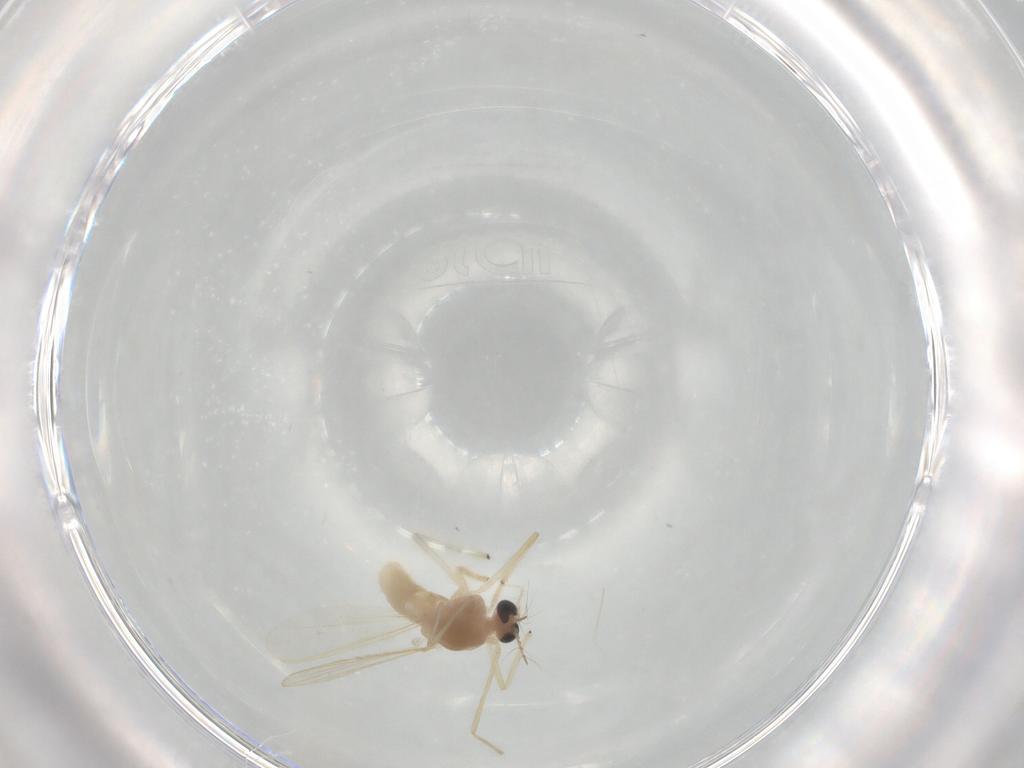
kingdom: Animalia
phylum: Arthropoda
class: Insecta
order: Diptera
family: Chironomidae
